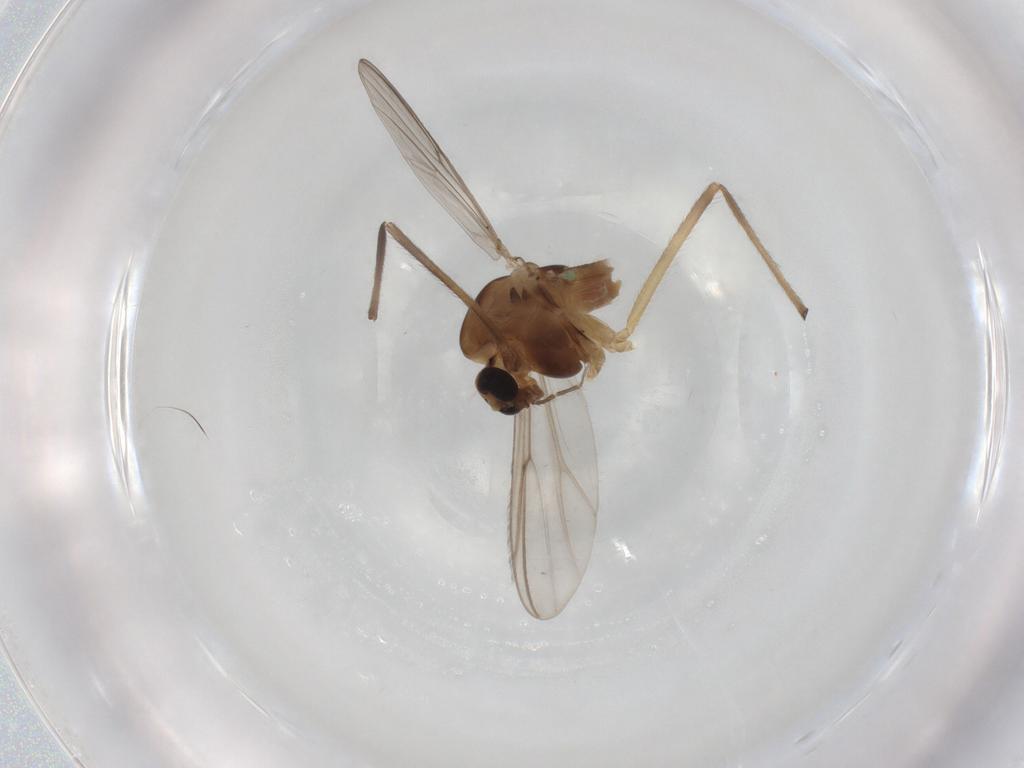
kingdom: Animalia
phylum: Arthropoda
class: Insecta
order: Diptera
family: Chironomidae
